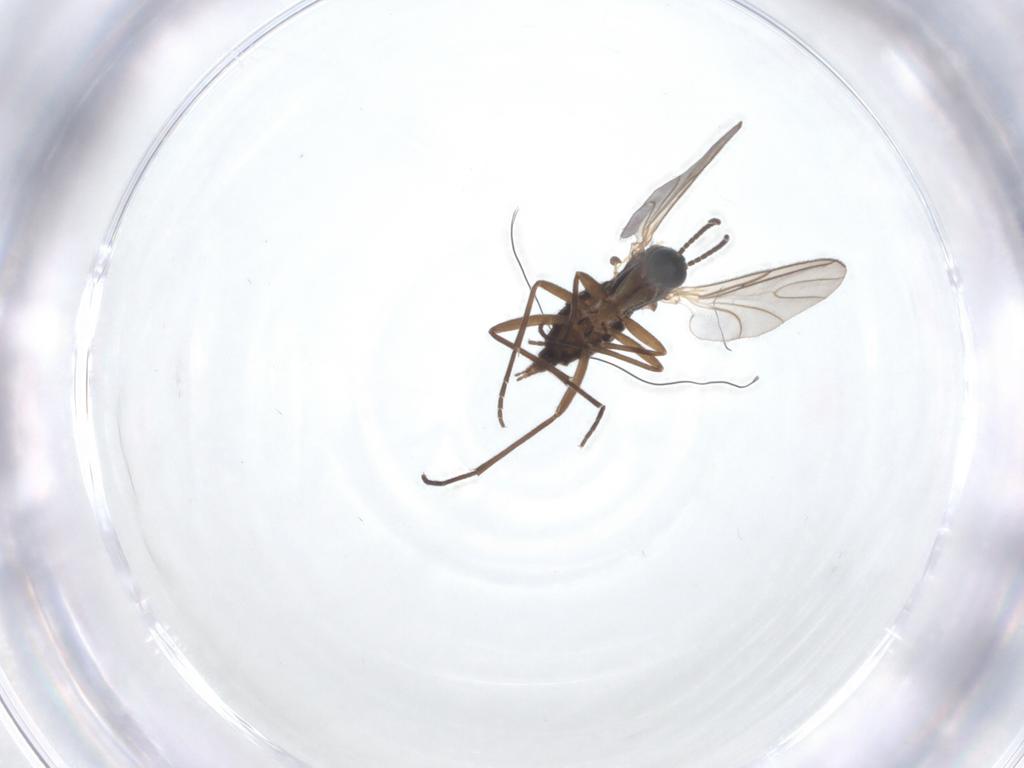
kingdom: Animalia
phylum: Arthropoda
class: Insecta
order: Diptera
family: Sciaridae
